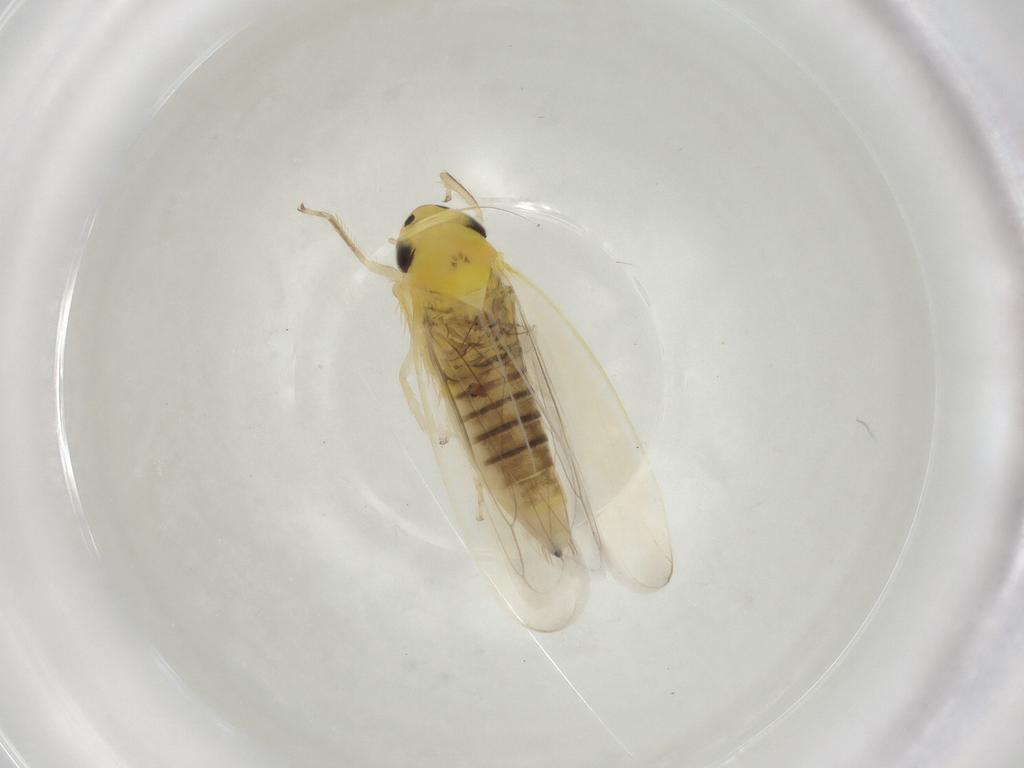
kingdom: Animalia
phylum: Arthropoda
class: Insecta
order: Hemiptera
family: Cicadellidae
